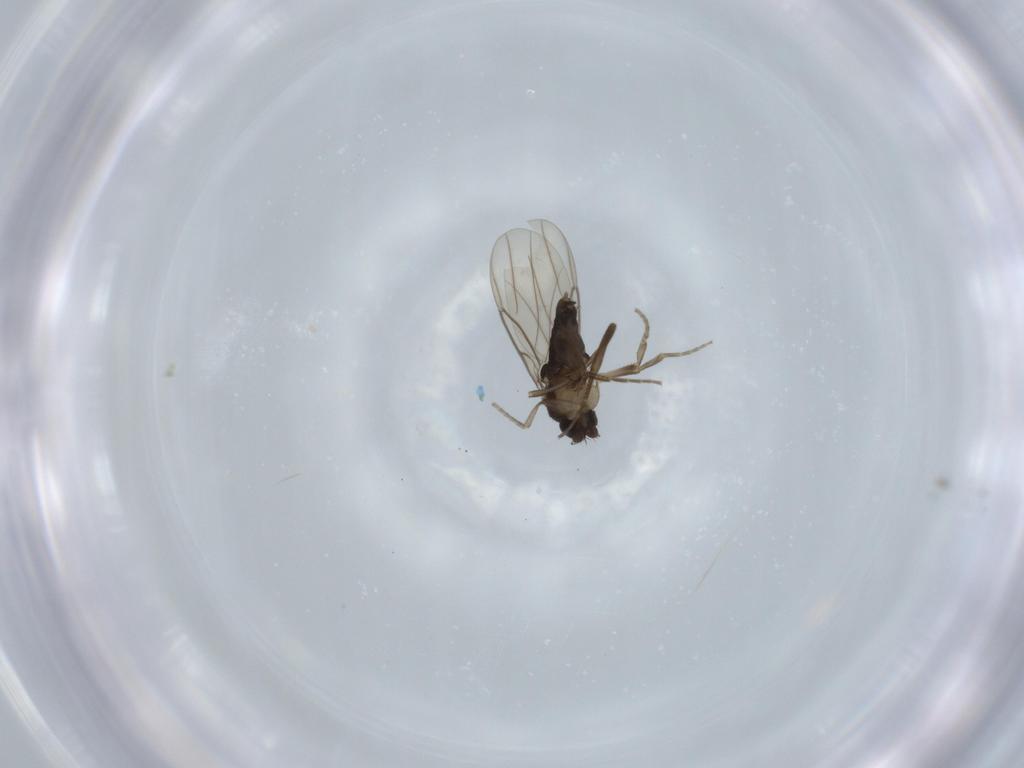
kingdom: Animalia
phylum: Arthropoda
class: Insecta
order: Diptera
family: Phoridae
